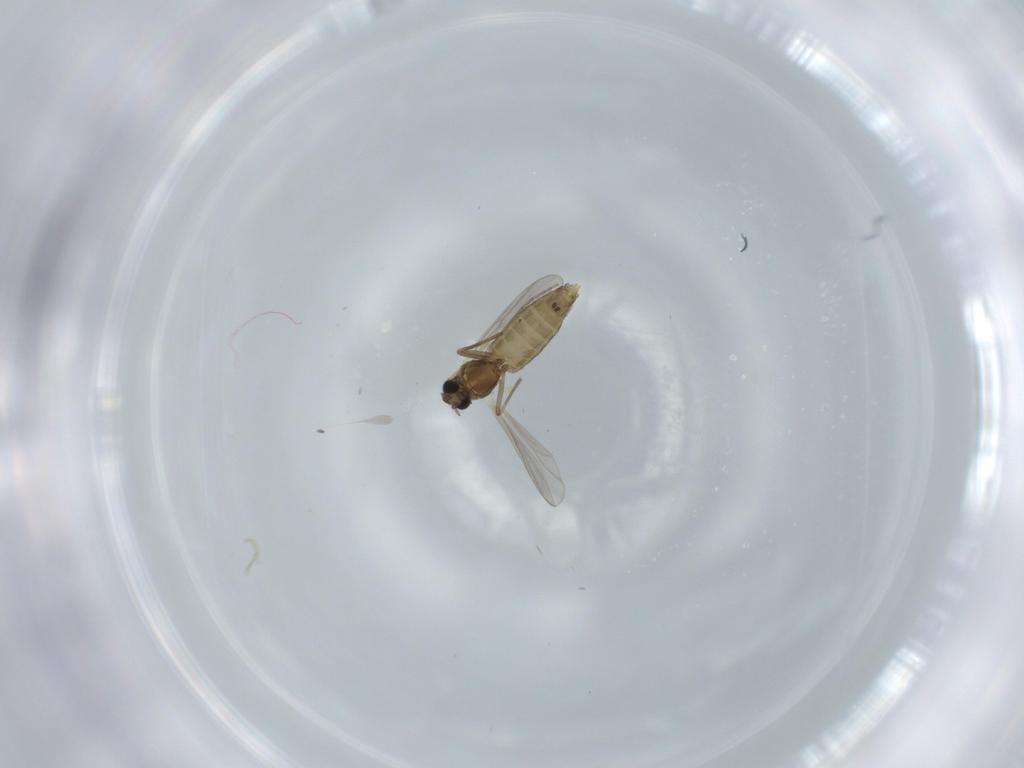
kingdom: Animalia
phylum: Arthropoda
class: Insecta
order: Diptera
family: Chironomidae
